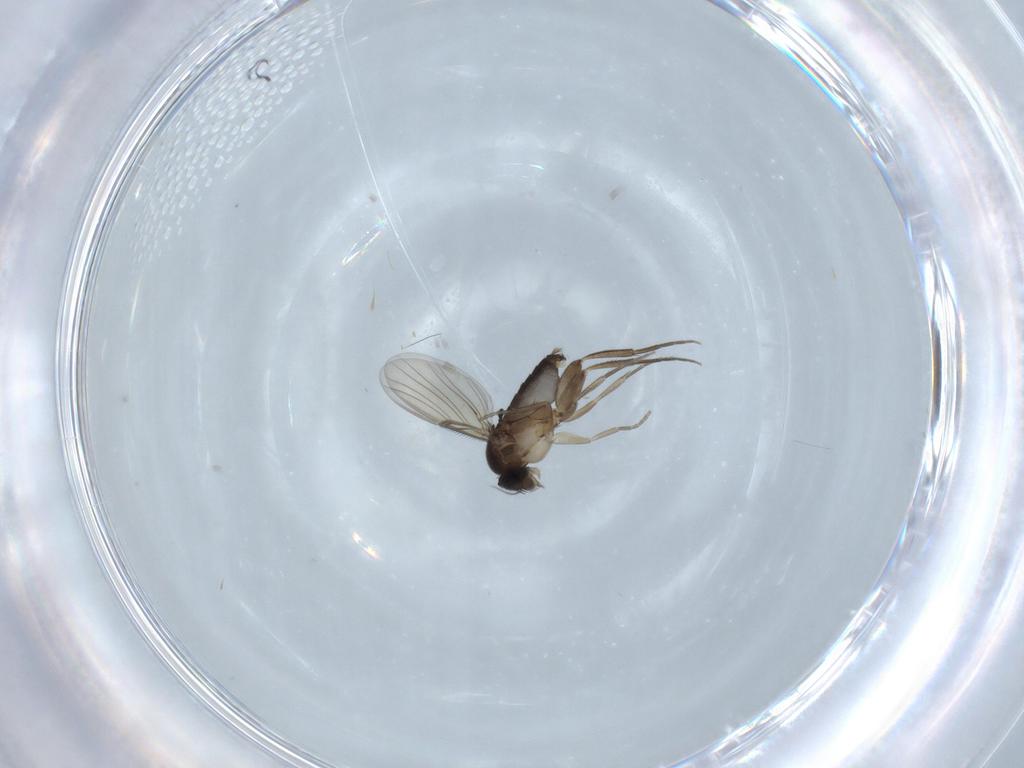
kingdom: Animalia
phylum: Arthropoda
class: Insecta
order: Diptera
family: Phoridae
